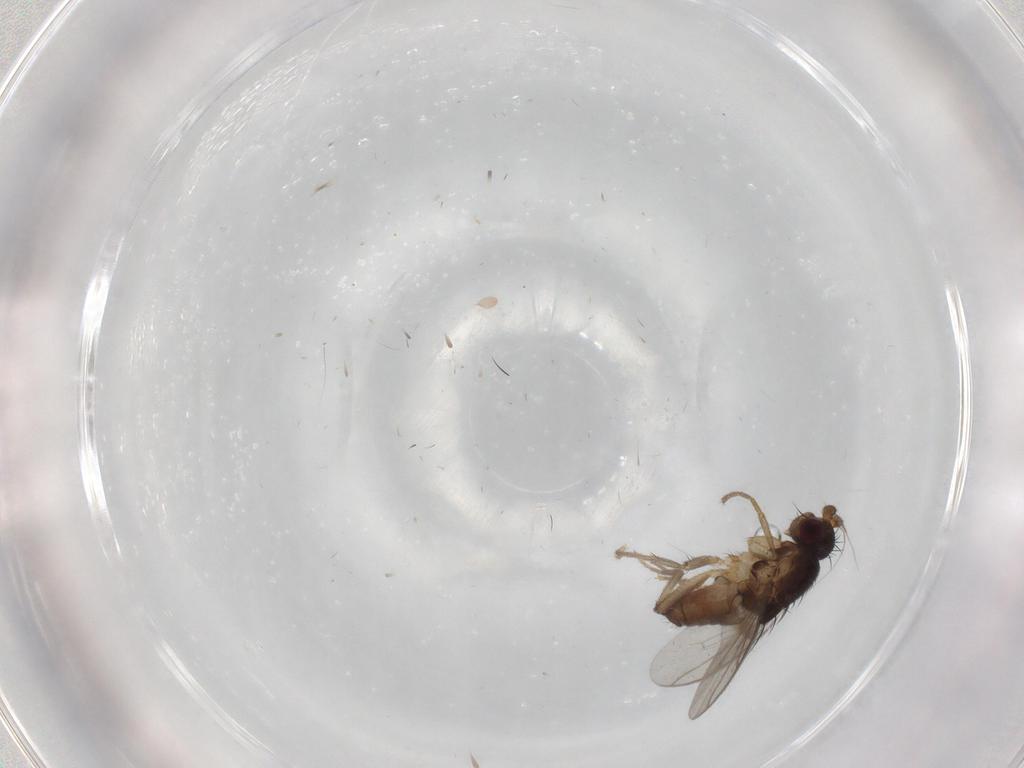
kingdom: Animalia
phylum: Arthropoda
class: Insecta
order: Diptera
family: Sphaeroceridae
